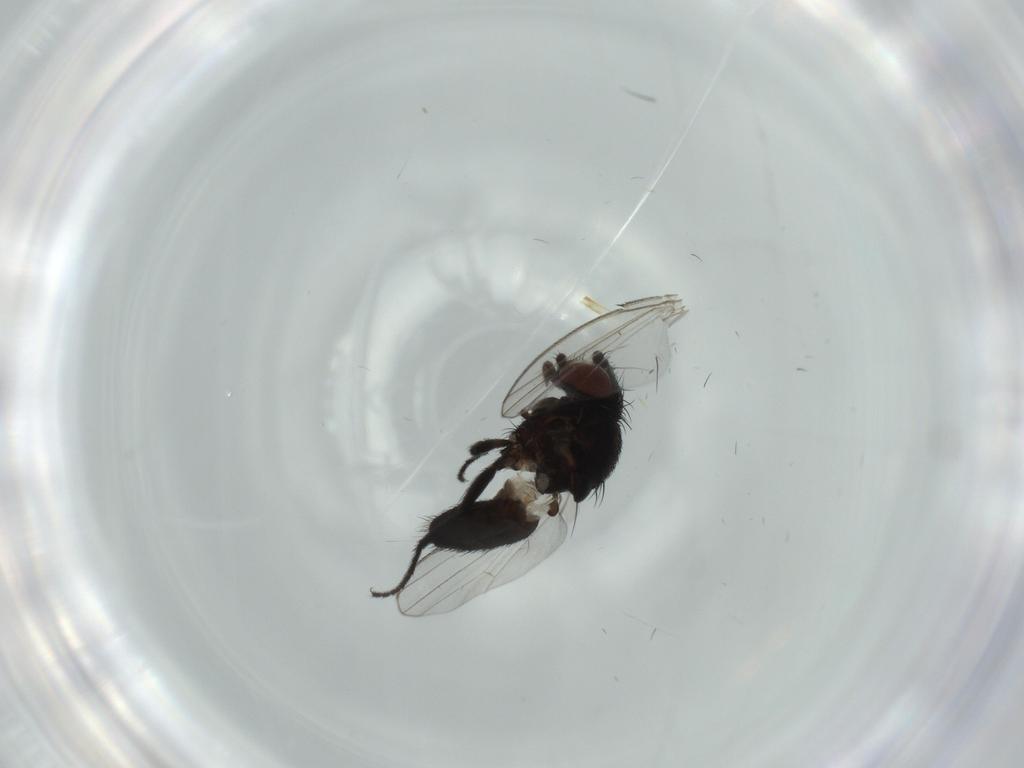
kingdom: Animalia
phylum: Arthropoda
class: Insecta
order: Diptera
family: Milichiidae
